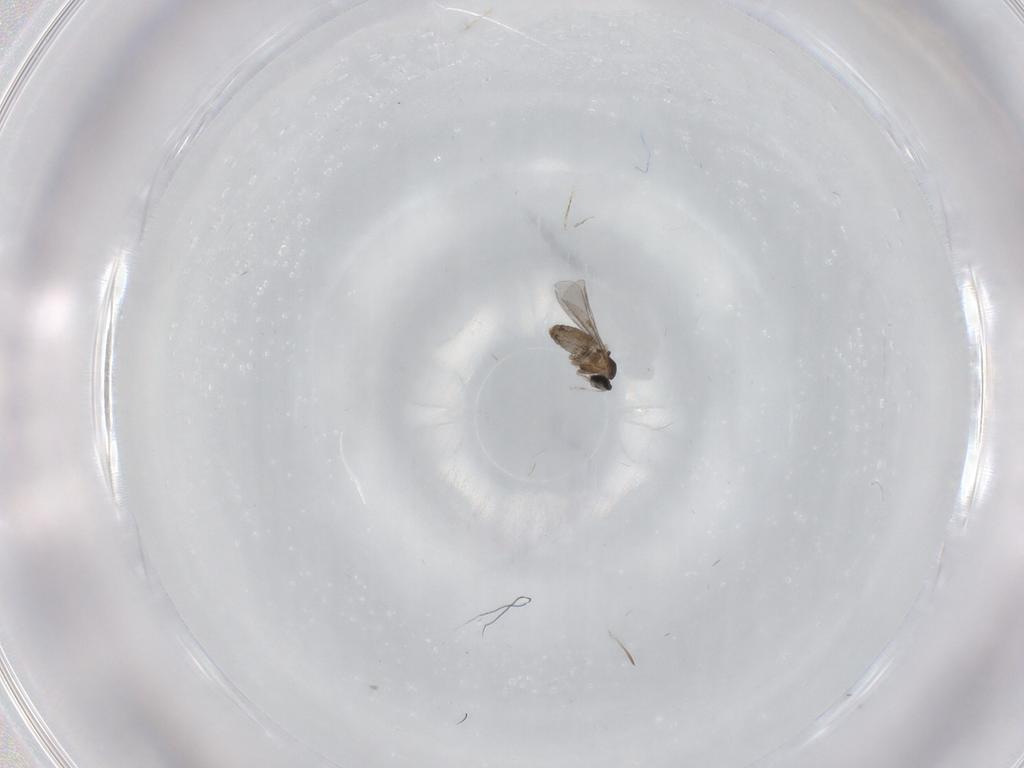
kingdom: Animalia
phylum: Arthropoda
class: Insecta
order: Diptera
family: Cecidomyiidae
